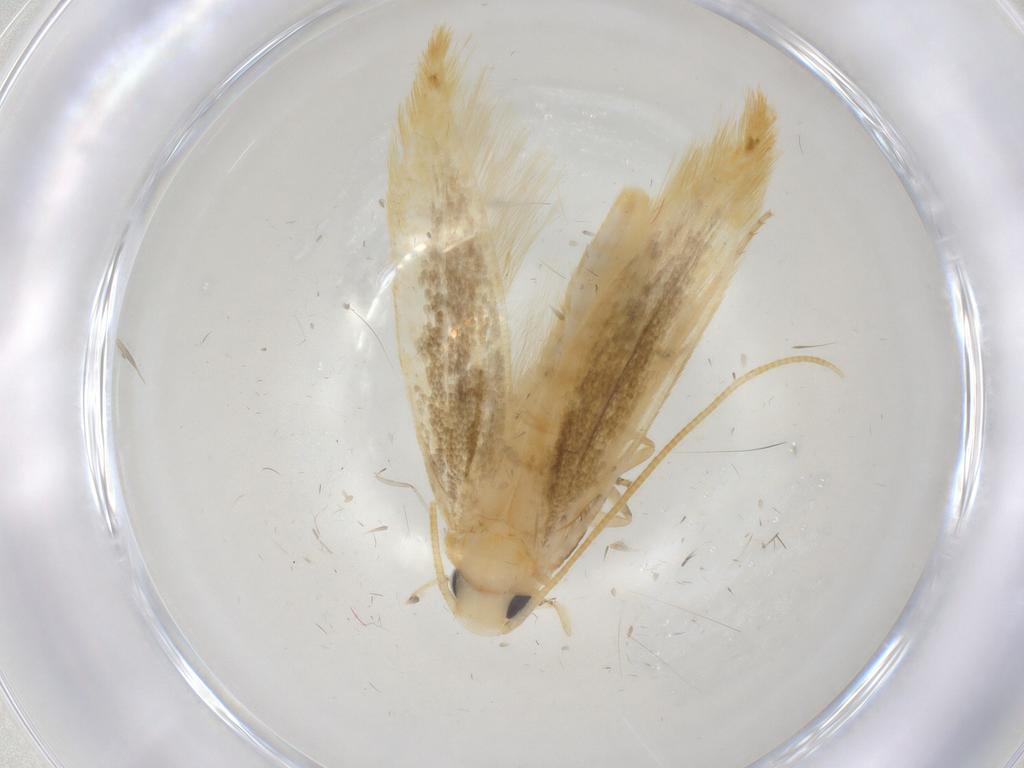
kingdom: Animalia
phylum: Arthropoda
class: Insecta
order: Lepidoptera
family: Tineidae
